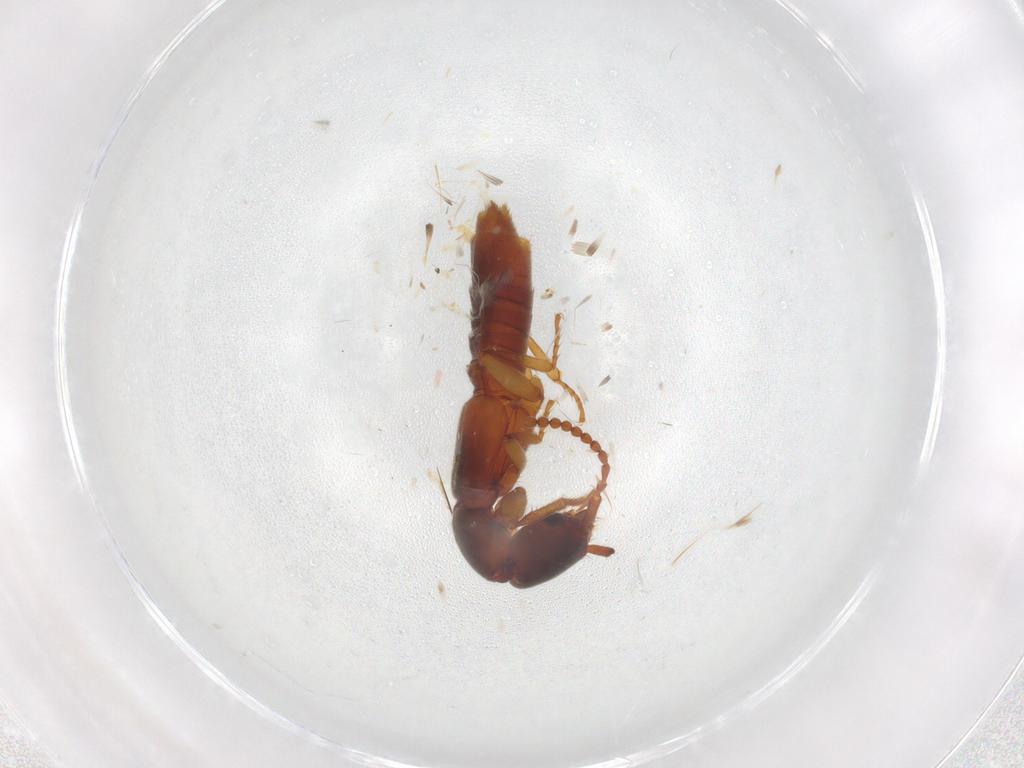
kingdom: Animalia
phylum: Arthropoda
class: Insecta
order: Coleoptera
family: Staphylinidae
